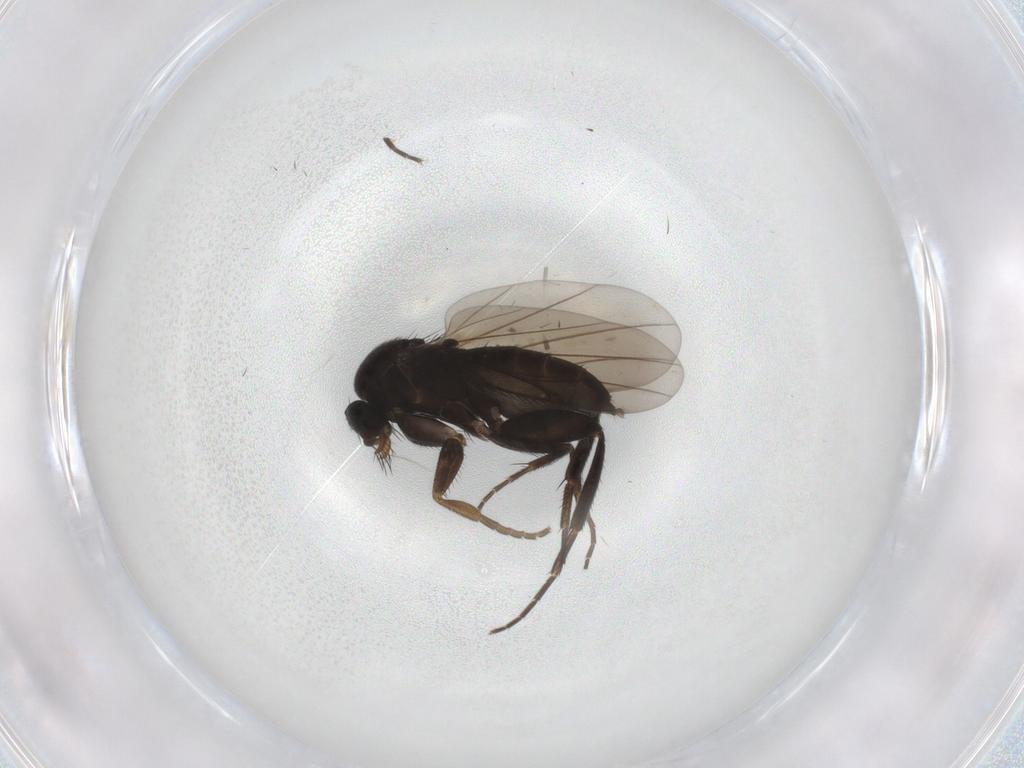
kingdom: Animalia
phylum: Arthropoda
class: Insecta
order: Diptera
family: Phoridae
